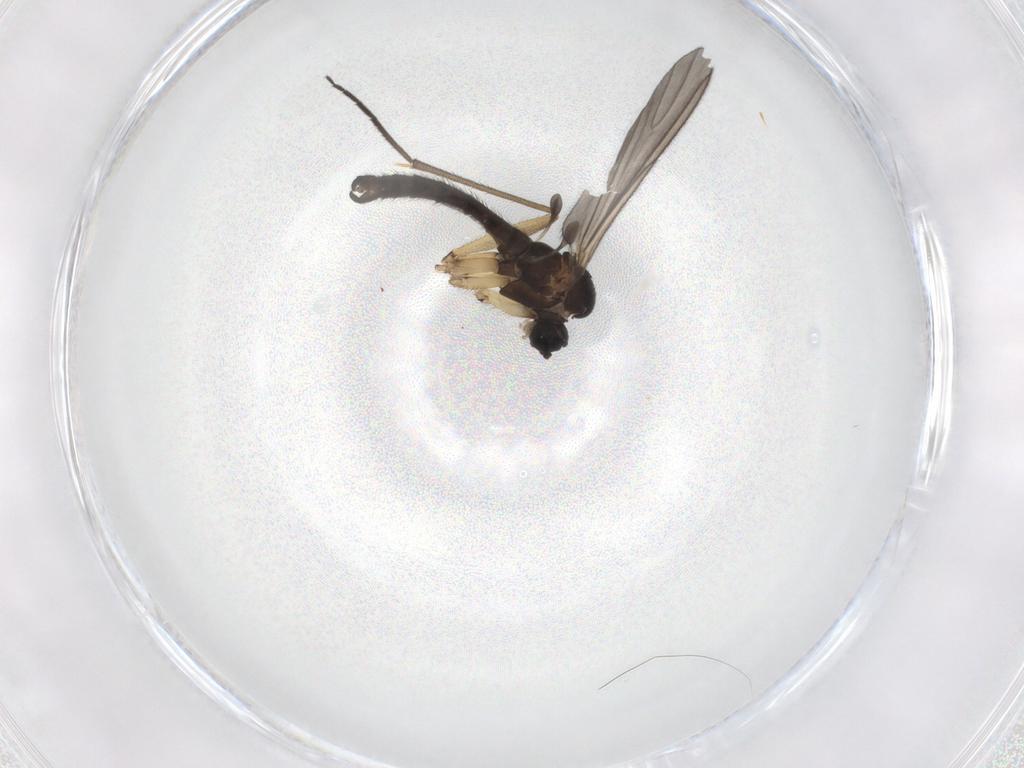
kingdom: Animalia
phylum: Arthropoda
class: Insecta
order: Diptera
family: Sciaridae
